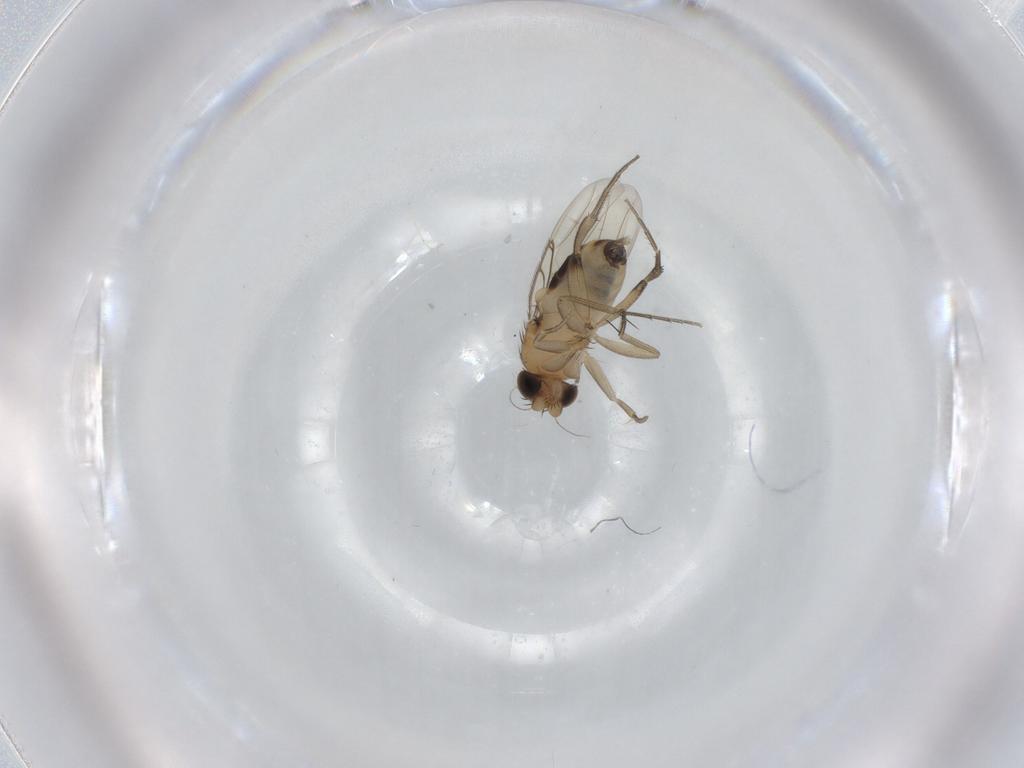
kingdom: Animalia
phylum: Arthropoda
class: Insecta
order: Diptera
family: Phoridae
